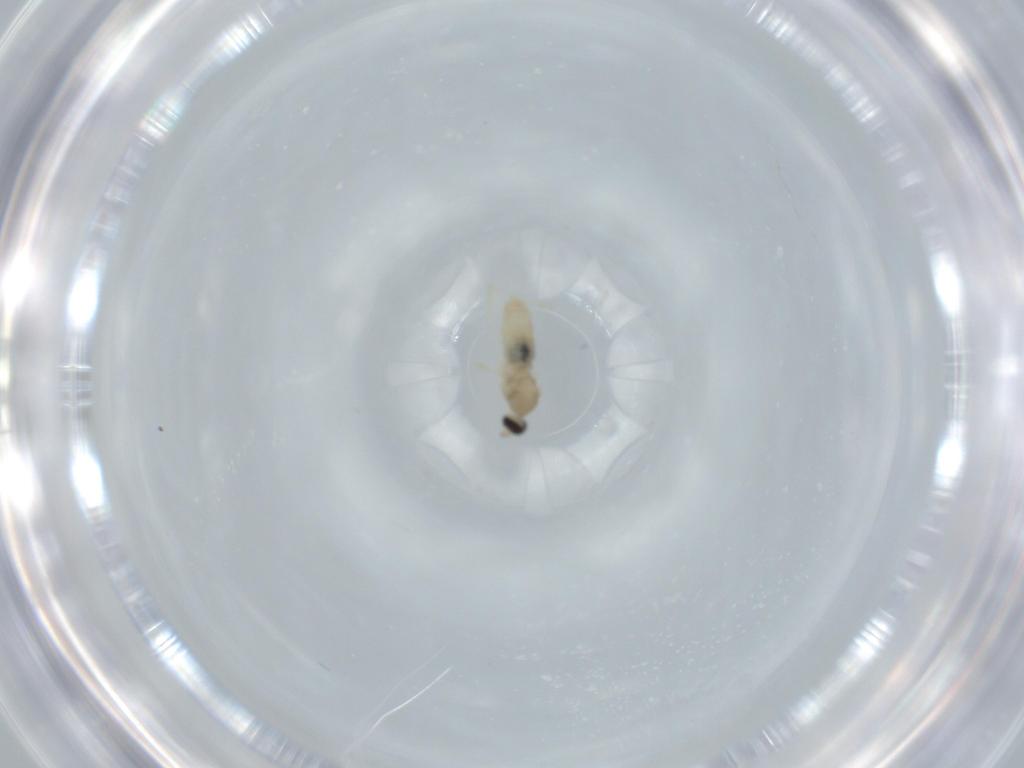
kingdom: Animalia
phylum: Arthropoda
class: Insecta
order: Diptera
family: Cecidomyiidae
